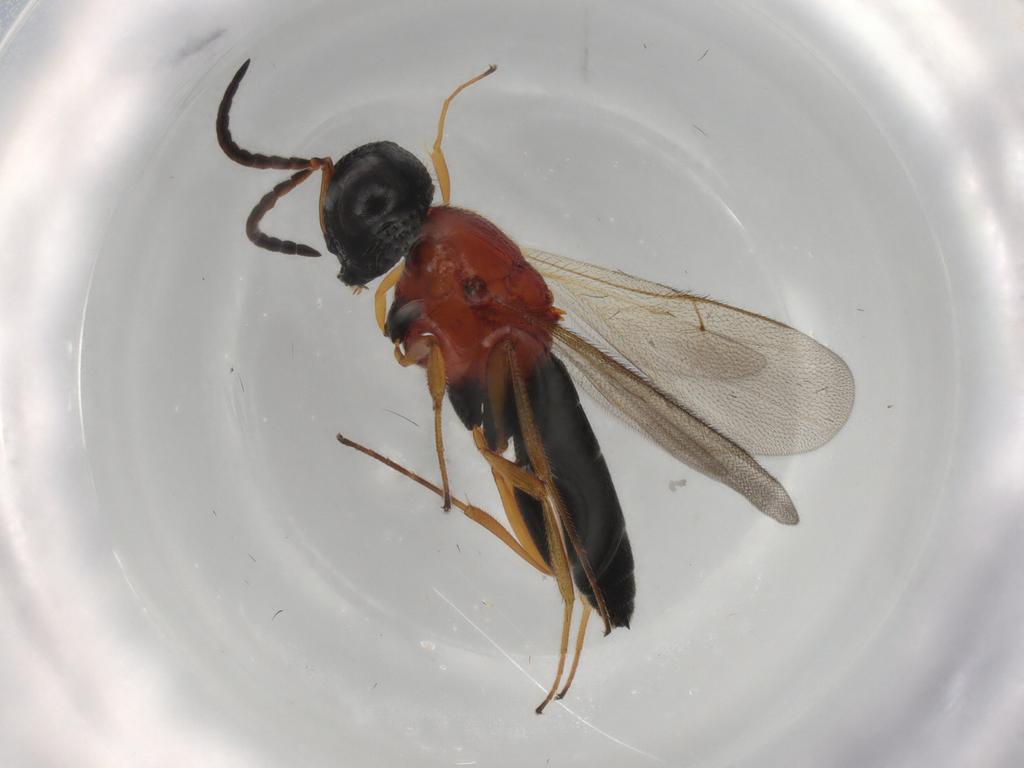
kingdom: Animalia
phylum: Arthropoda
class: Insecta
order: Hymenoptera
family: Scelionidae
